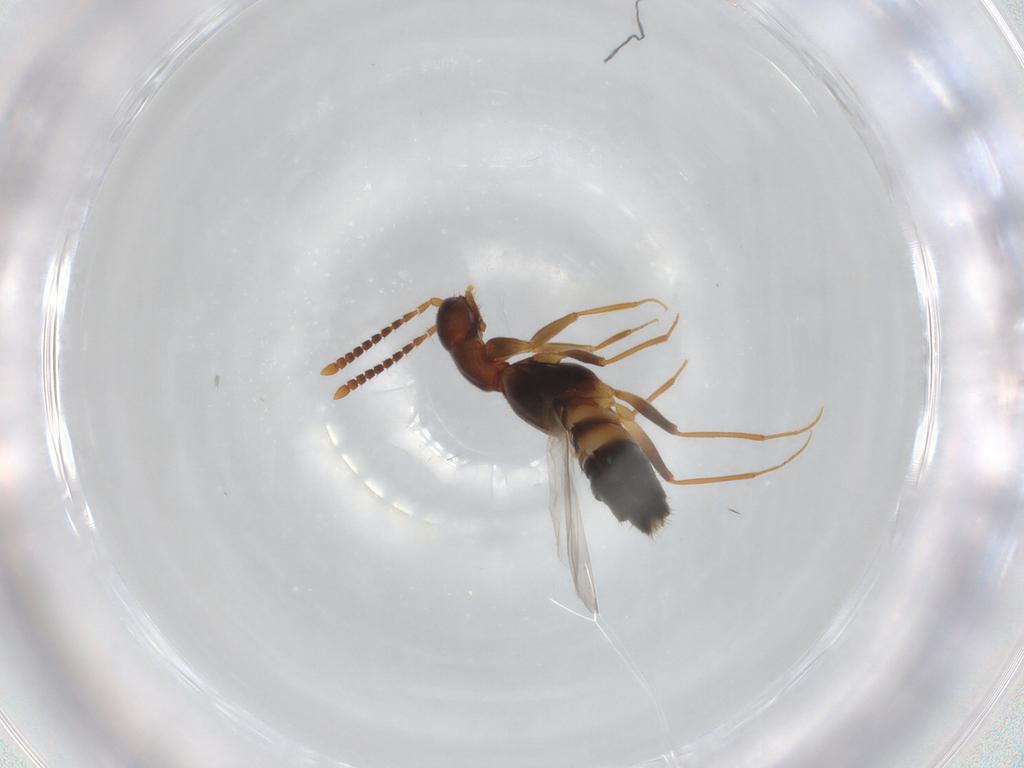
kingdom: Animalia
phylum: Arthropoda
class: Insecta
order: Coleoptera
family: Staphylinidae
